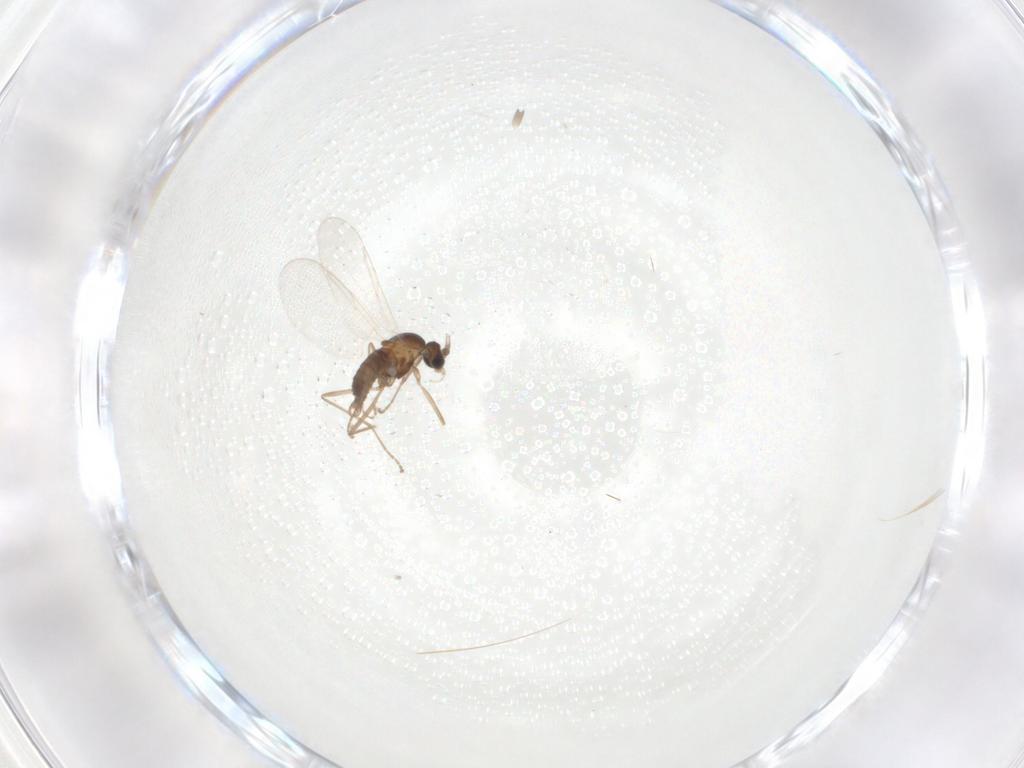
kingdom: Animalia
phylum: Arthropoda
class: Insecta
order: Diptera
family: Cecidomyiidae
